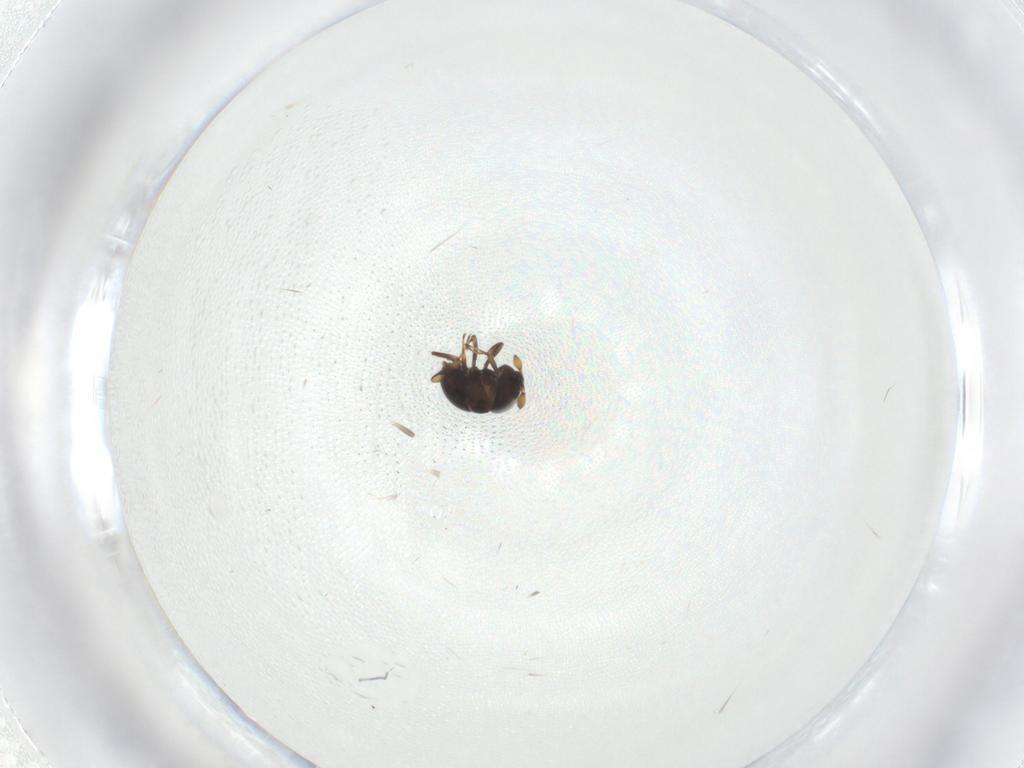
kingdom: Animalia
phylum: Arthropoda
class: Insecta
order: Hymenoptera
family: Scelionidae
